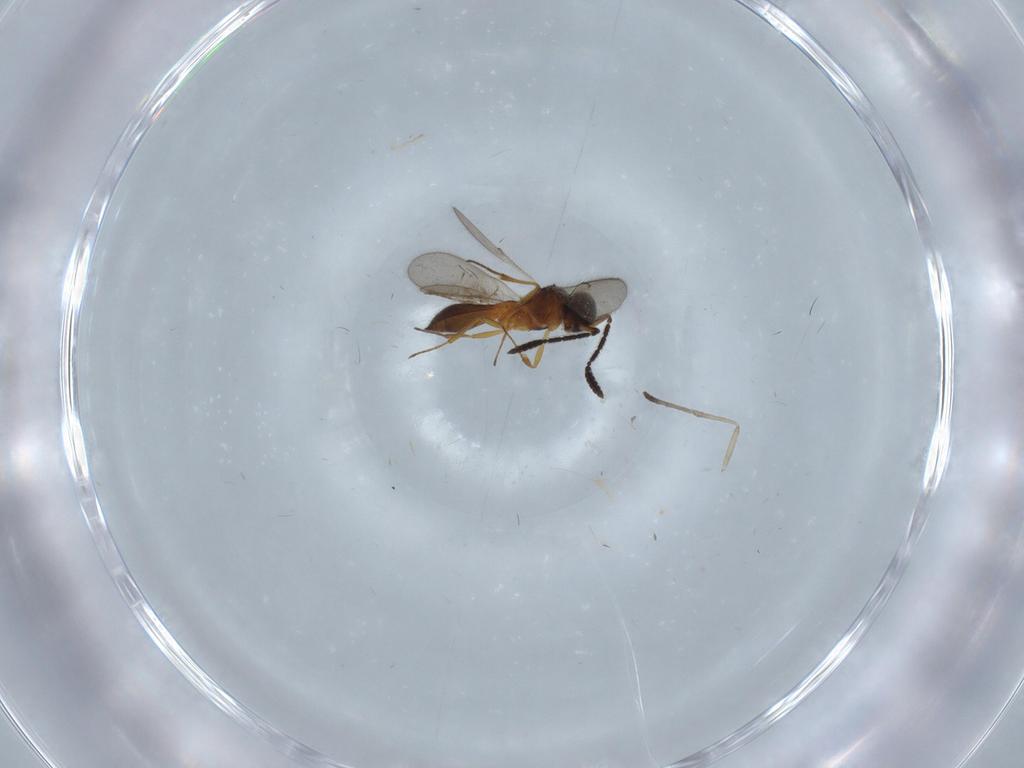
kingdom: Animalia
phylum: Arthropoda
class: Insecta
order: Hymenoptera
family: Scelionidae
